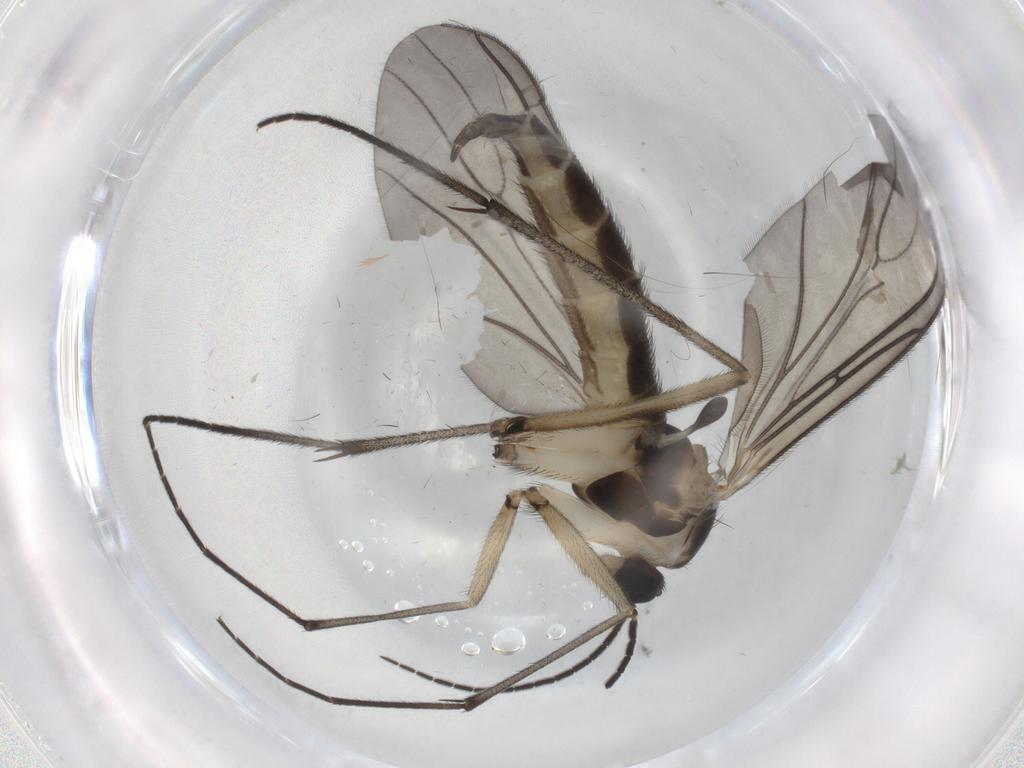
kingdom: Animalia
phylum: Arthropoda
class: Insecta
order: Diptera
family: Sciaridae
